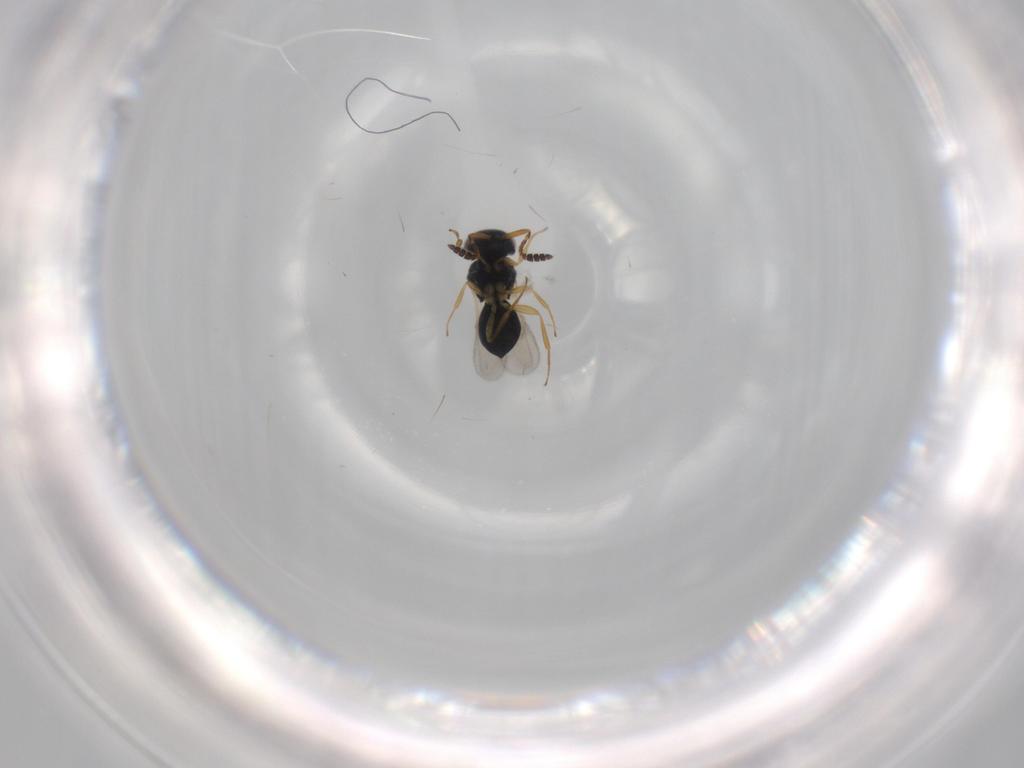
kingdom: Animalia
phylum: Arthropoda
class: Insecta
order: Hymenoptera
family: Scelionidae
